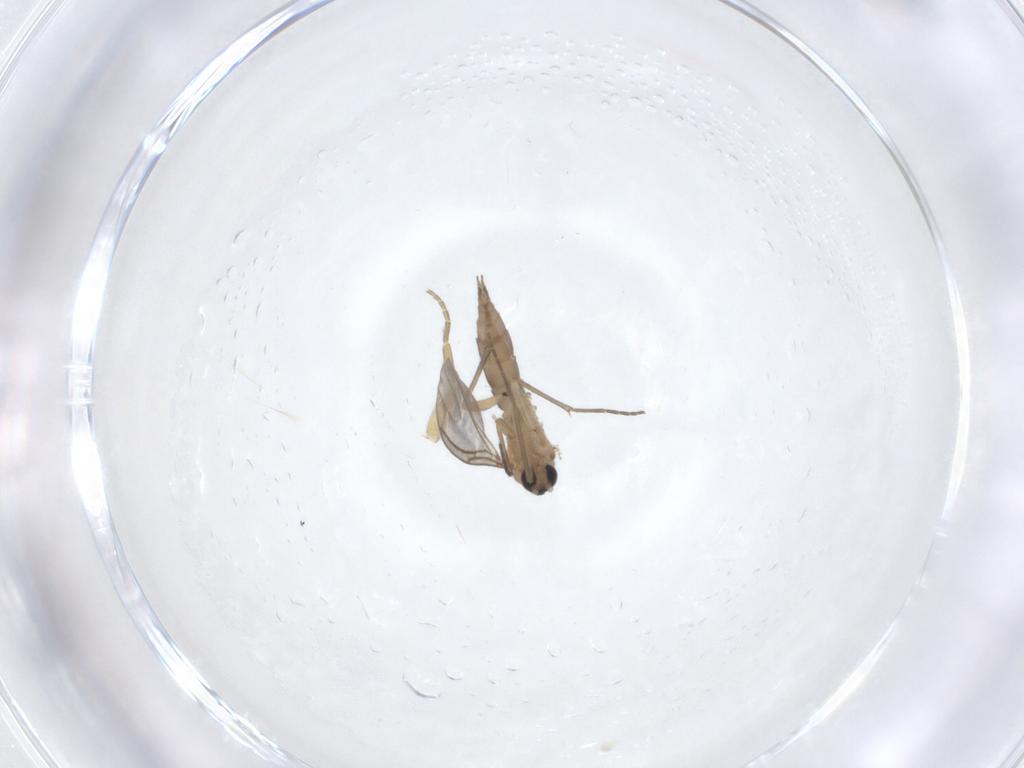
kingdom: Animalia
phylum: Arthropoda
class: Insecta
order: Diptera
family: Sciaridae
